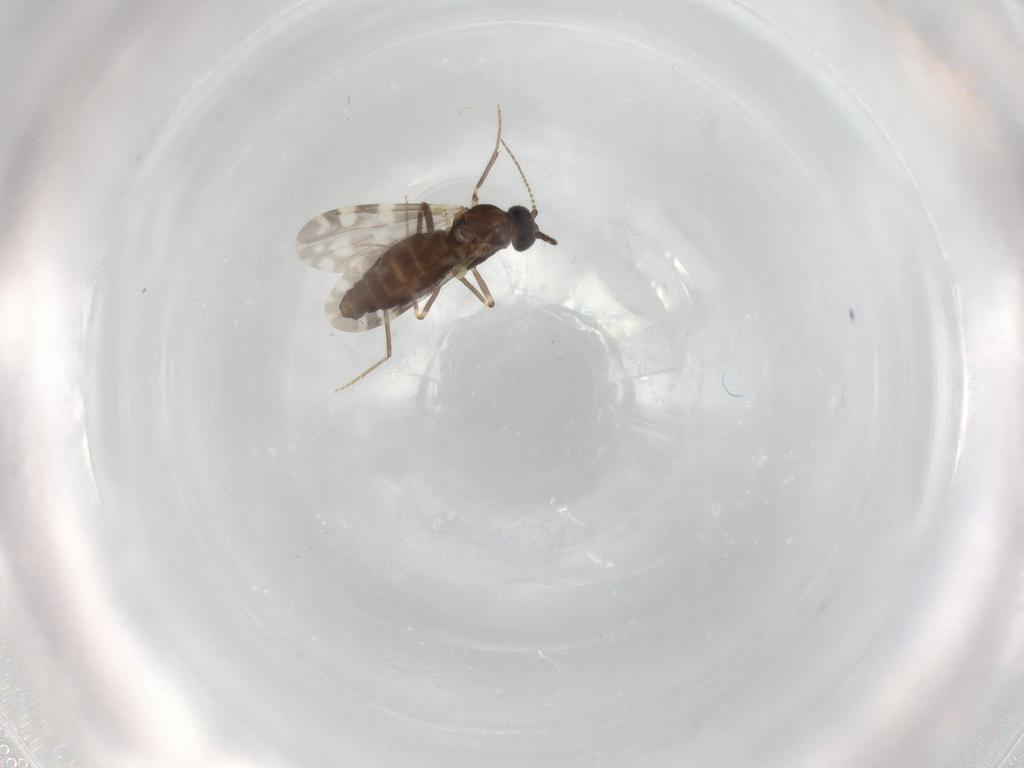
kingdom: Animalia
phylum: Arthropoda
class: Insecta
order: Diptera
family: Ceratopogonidae
